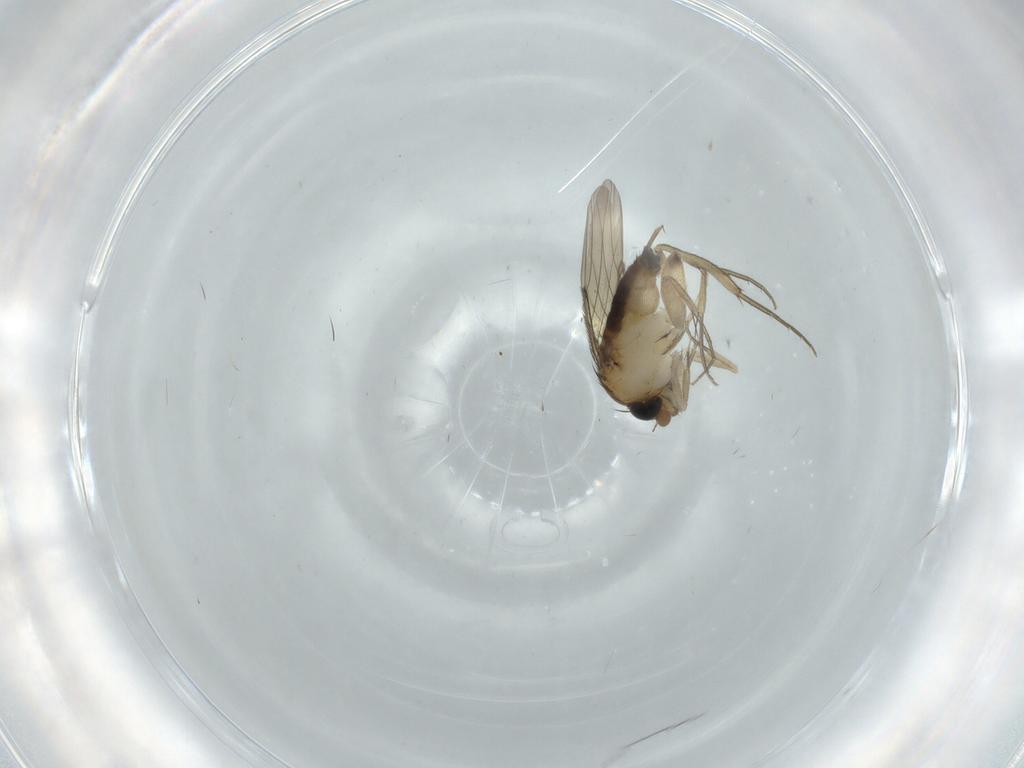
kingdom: Animalia
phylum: Arthropoda
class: Insecta
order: Diptera
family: Phoridae
